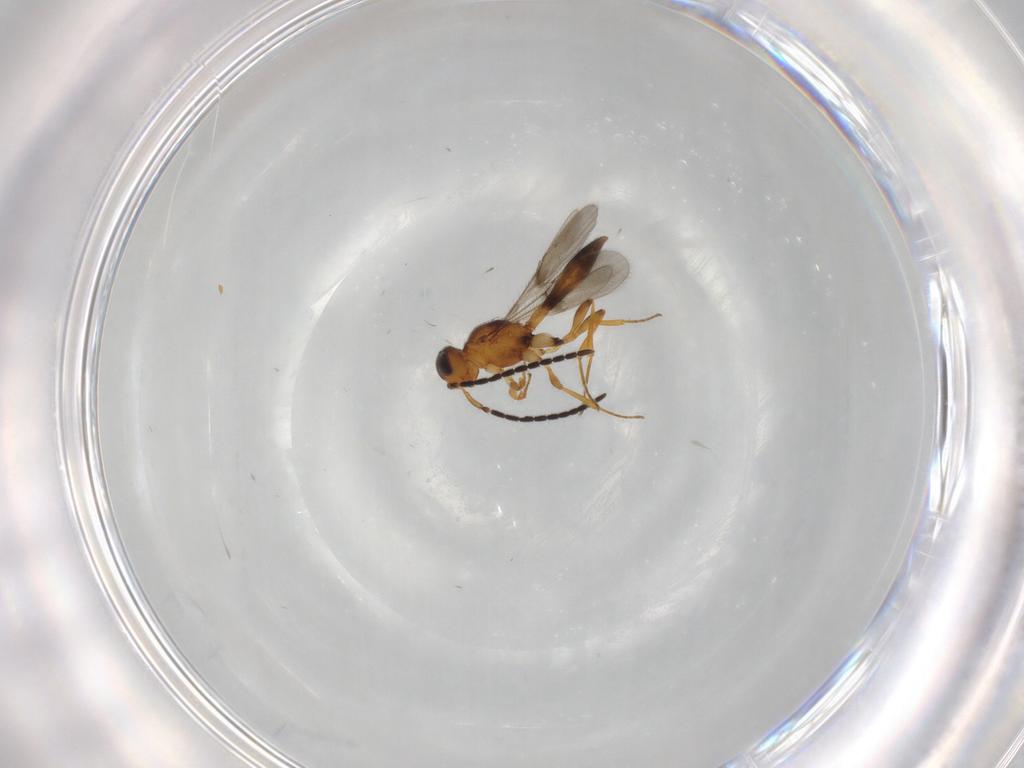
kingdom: Animalia
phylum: Arthropoda
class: Insecta
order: Hymenoptera
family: Scelionidae
